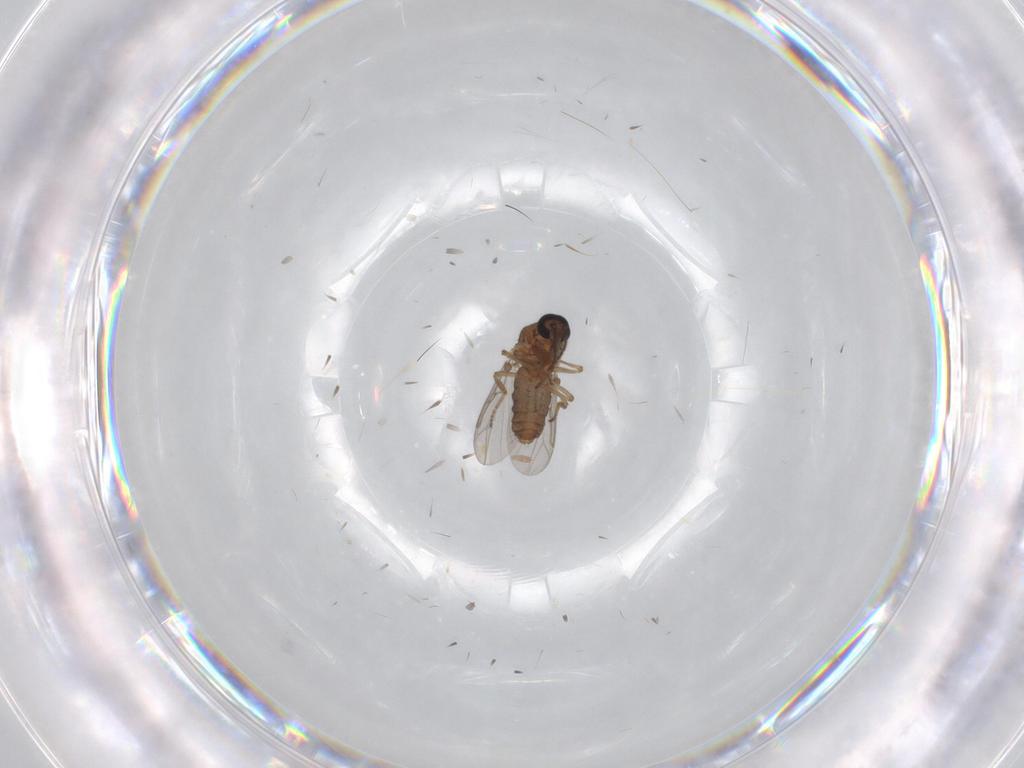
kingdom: Animalia
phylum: Arthropoda
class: Insecta
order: Diptera
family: Ceratopogonidae
